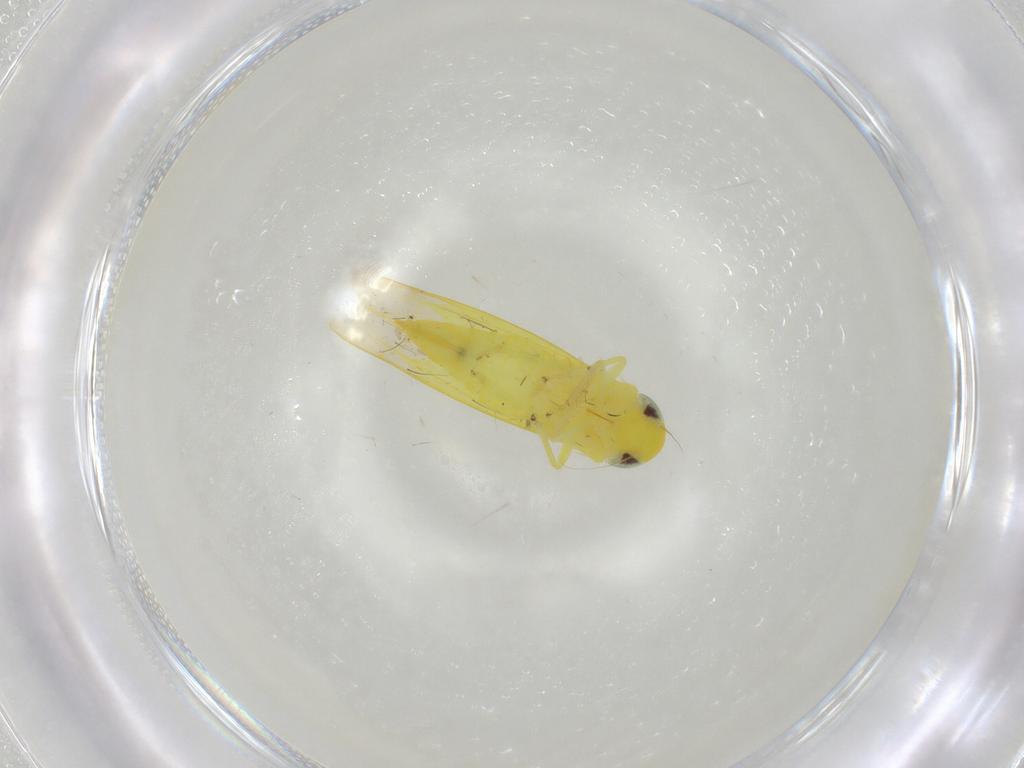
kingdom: Animalia
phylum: Arthropoda
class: Insecta
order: Hemiptera
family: Cicadellidae
